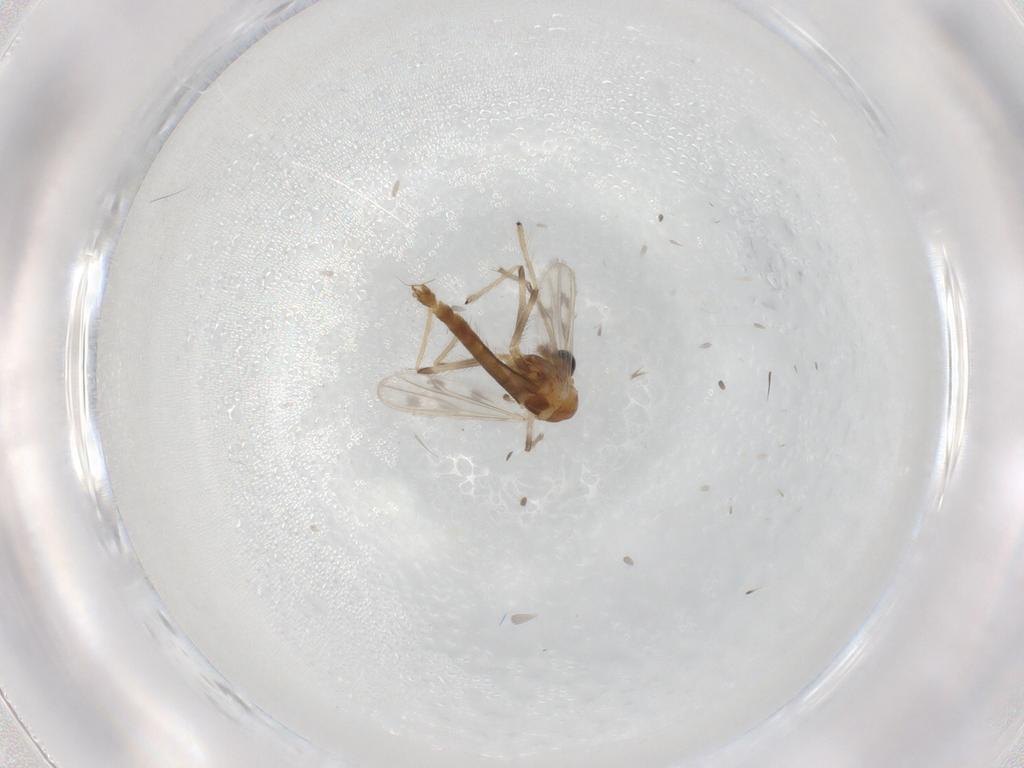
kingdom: Animalia
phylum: Arthropoda
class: Insecta
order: Diptera
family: Chironomidae
